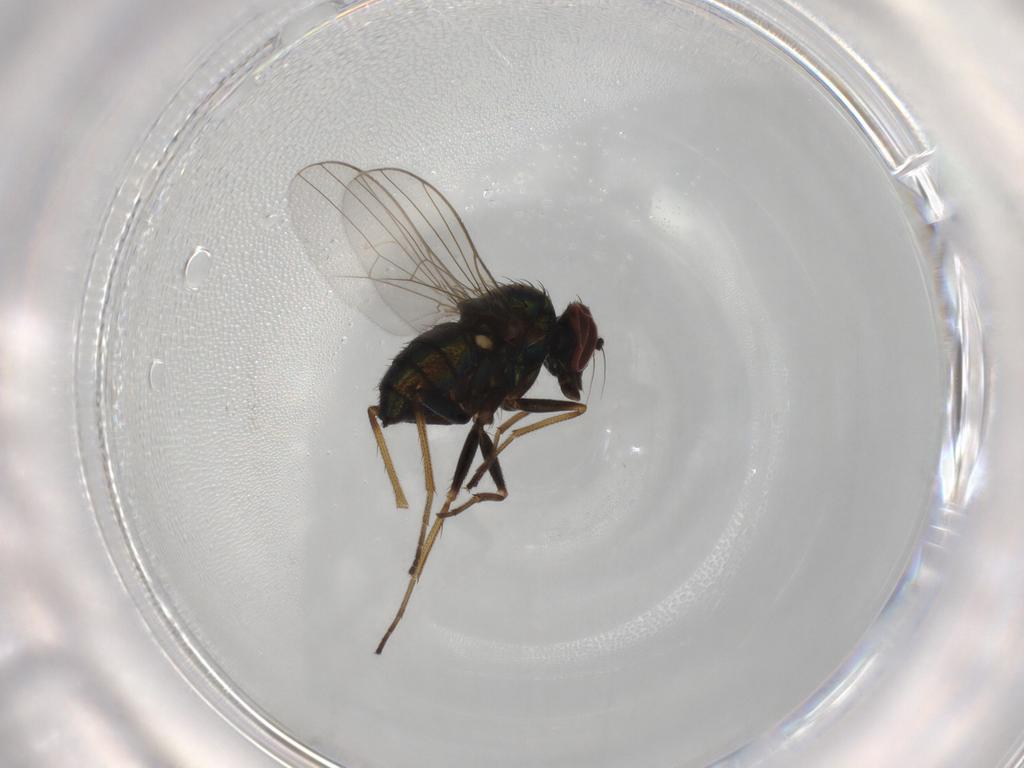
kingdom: Animalia
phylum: Arthropoda
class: Insecta
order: Diptera
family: Dolichopodidae
